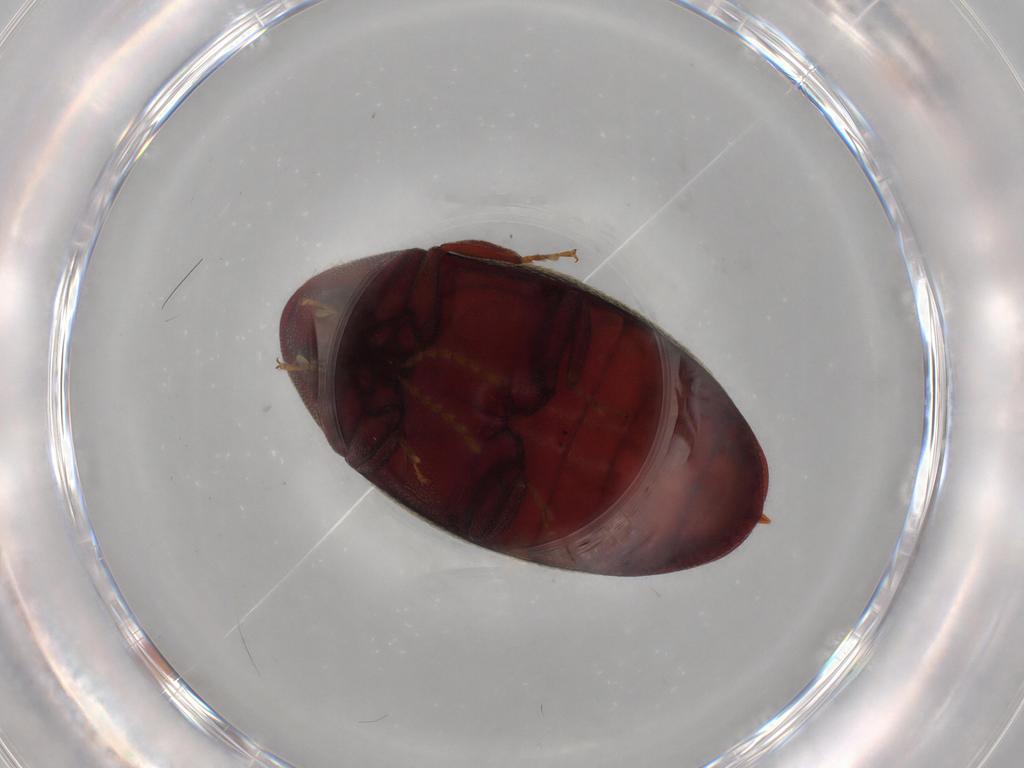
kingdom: Animalia
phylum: Arthropoda
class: Insecta
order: Coleoptera
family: Chelonariidae
